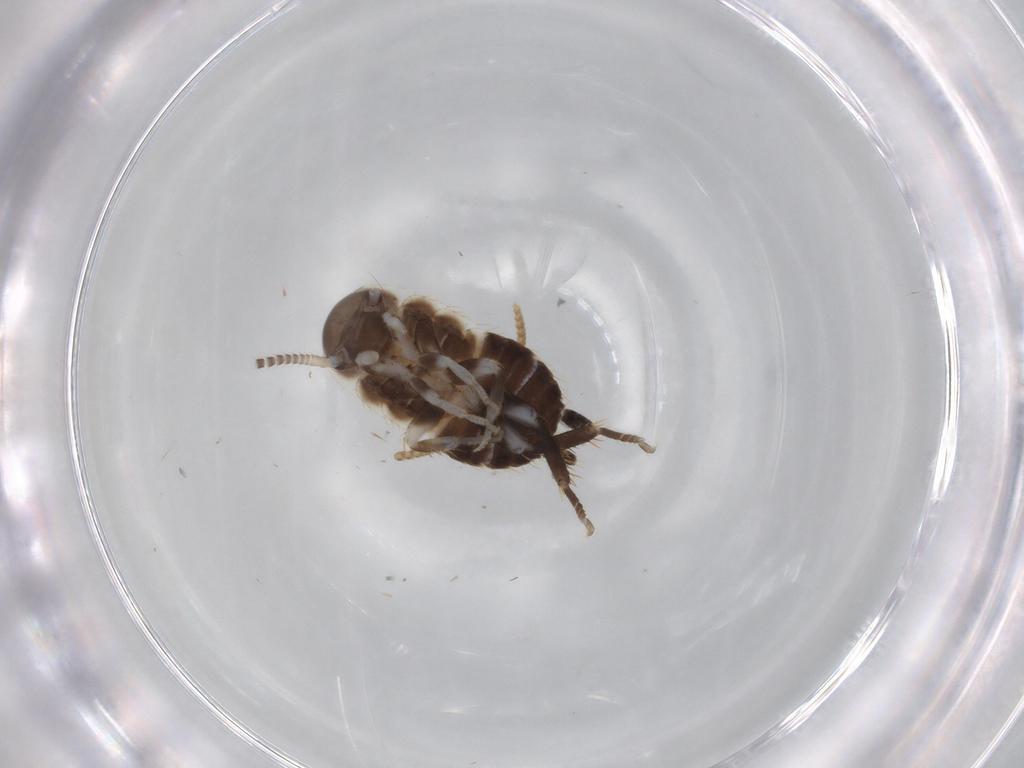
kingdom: Animalia
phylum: Arthropoda
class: Insecta
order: Blattodea
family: Ectobiidae
